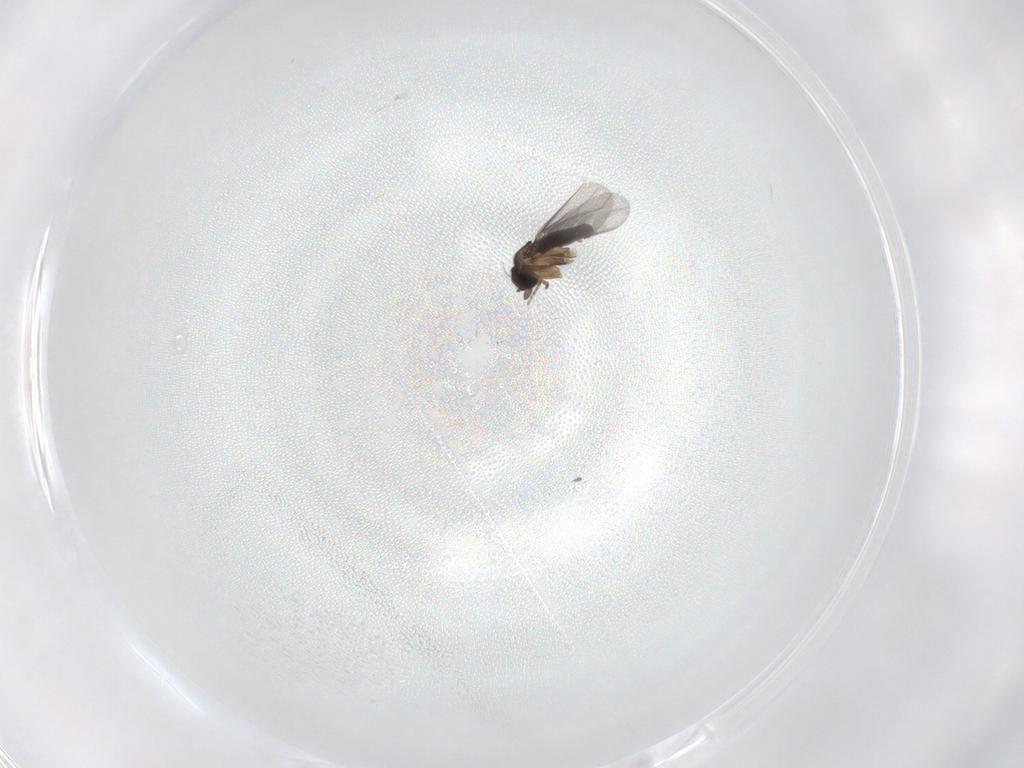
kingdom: Animalia
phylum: Arthropoda
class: Insecta
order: Diptera
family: Phoridae
